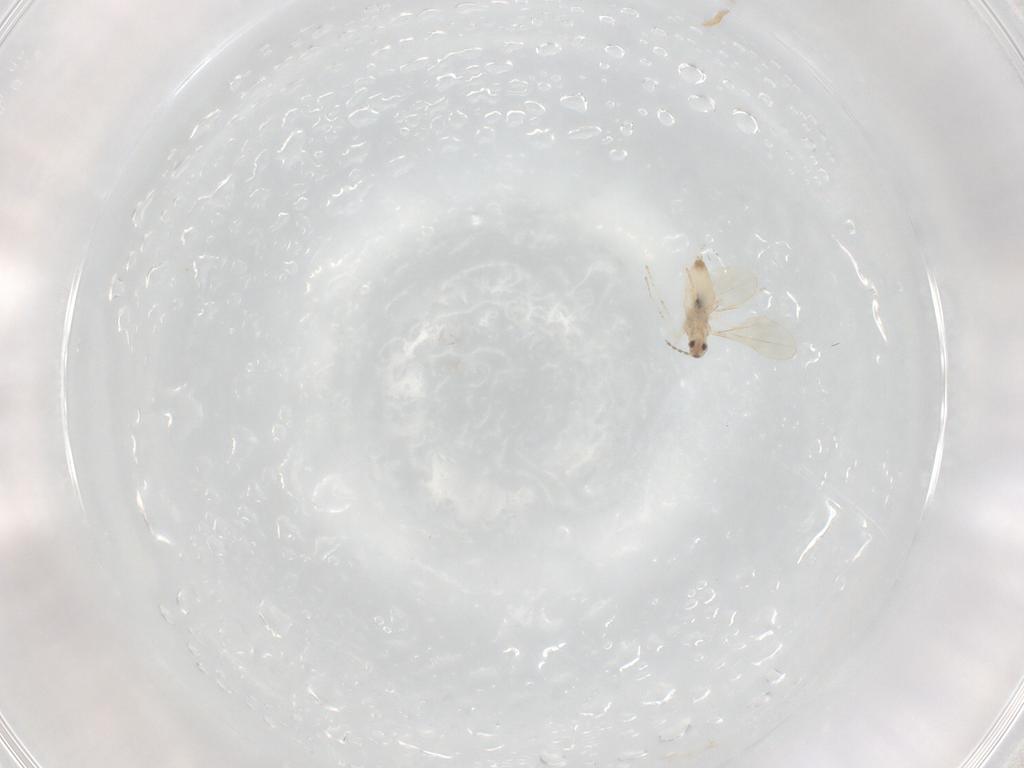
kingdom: Animalia
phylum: Arthropoda
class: Insecta
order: Diptera
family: Cecidomyiidae
